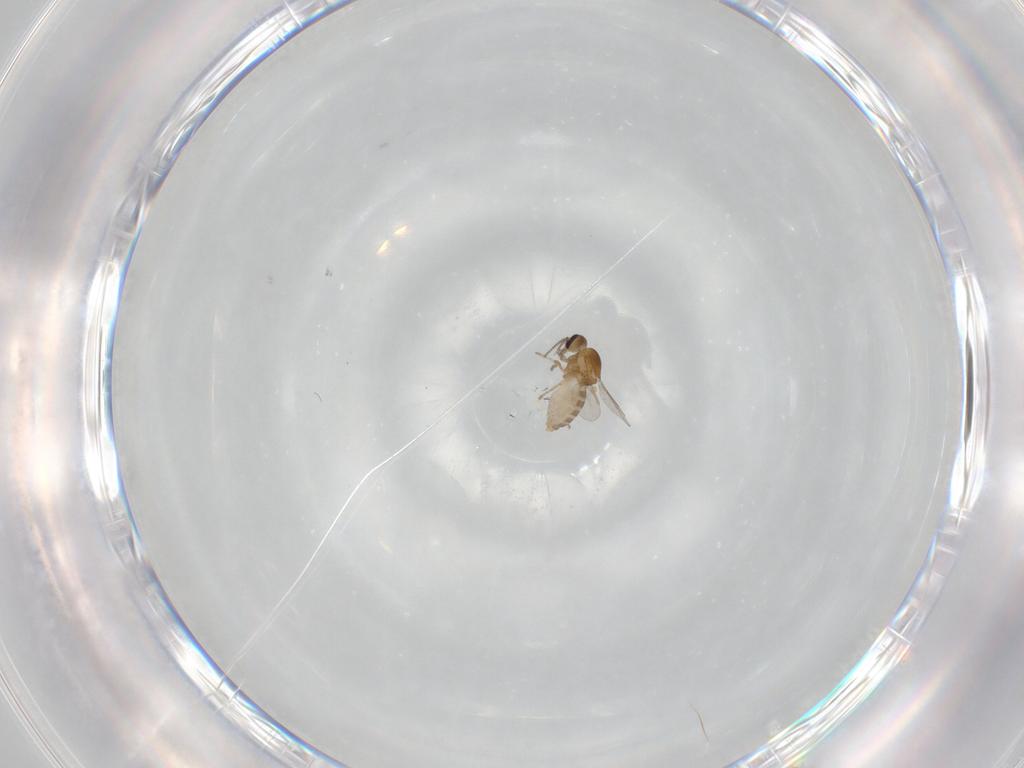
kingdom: Animalia
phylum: Arthropoda
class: Insecta
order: Diptera
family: Ceratopogonidae
